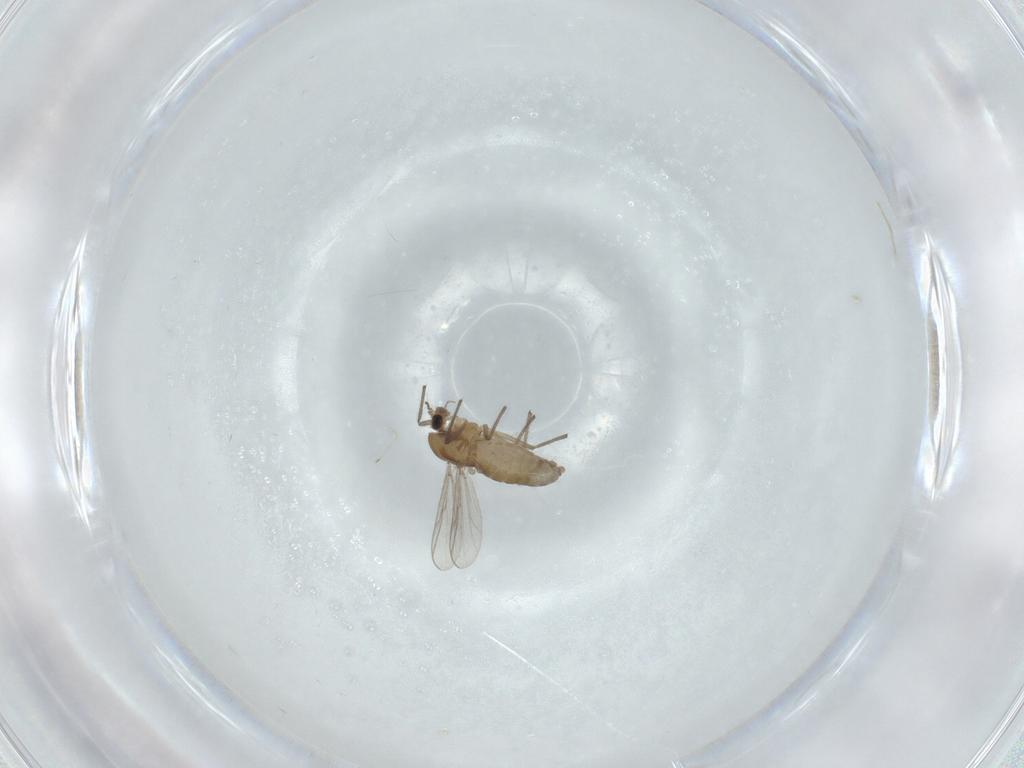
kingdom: Animalia
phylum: Arthropoda
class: Insecta
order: Diptera
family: Chironomidae
